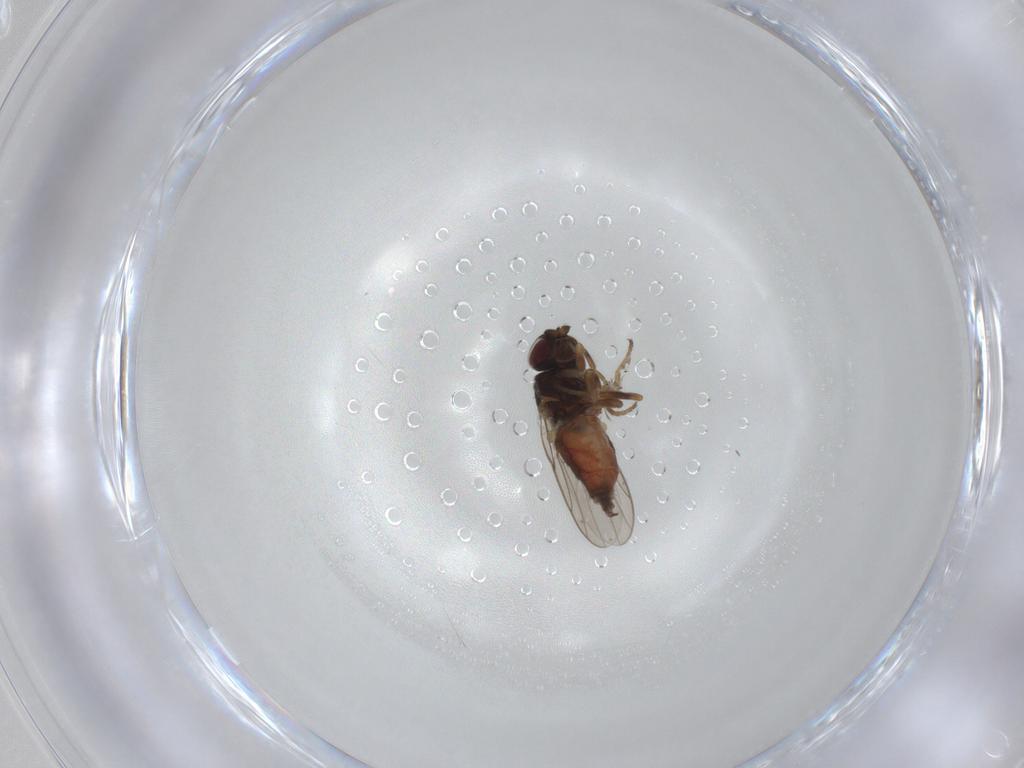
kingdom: Animalia
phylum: Arthropoda
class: Insecta
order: Diptera
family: Chloropidae
